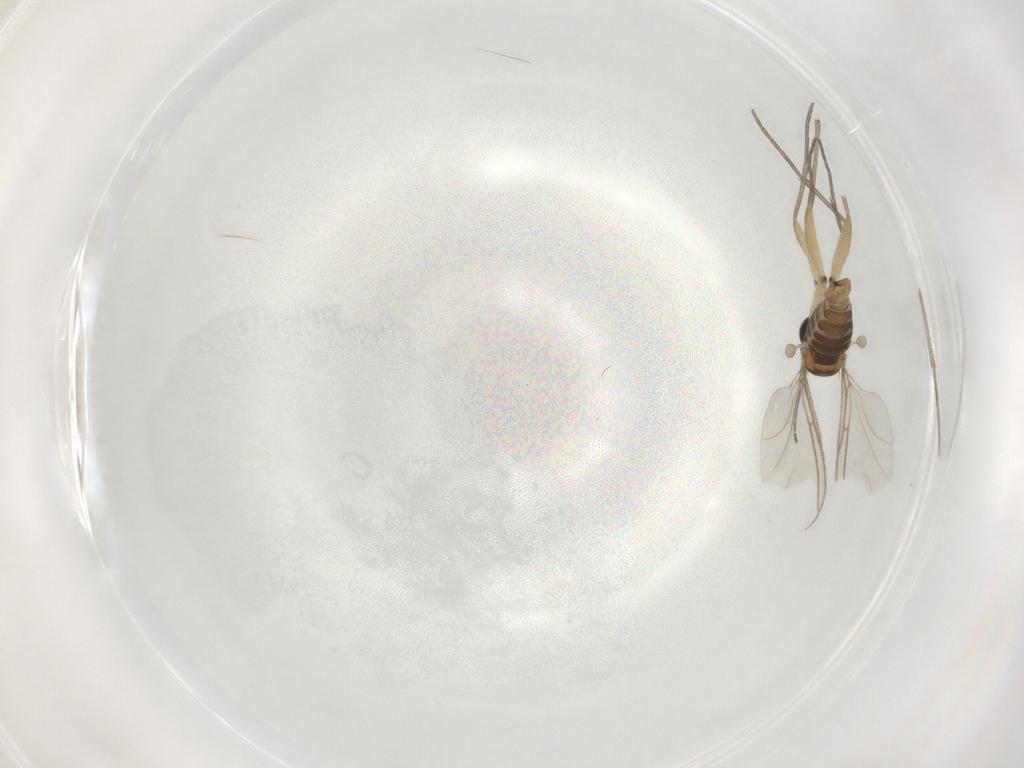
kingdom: Animalia
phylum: Arthropoda
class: Insecta
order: Diptera
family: Sciaridae
